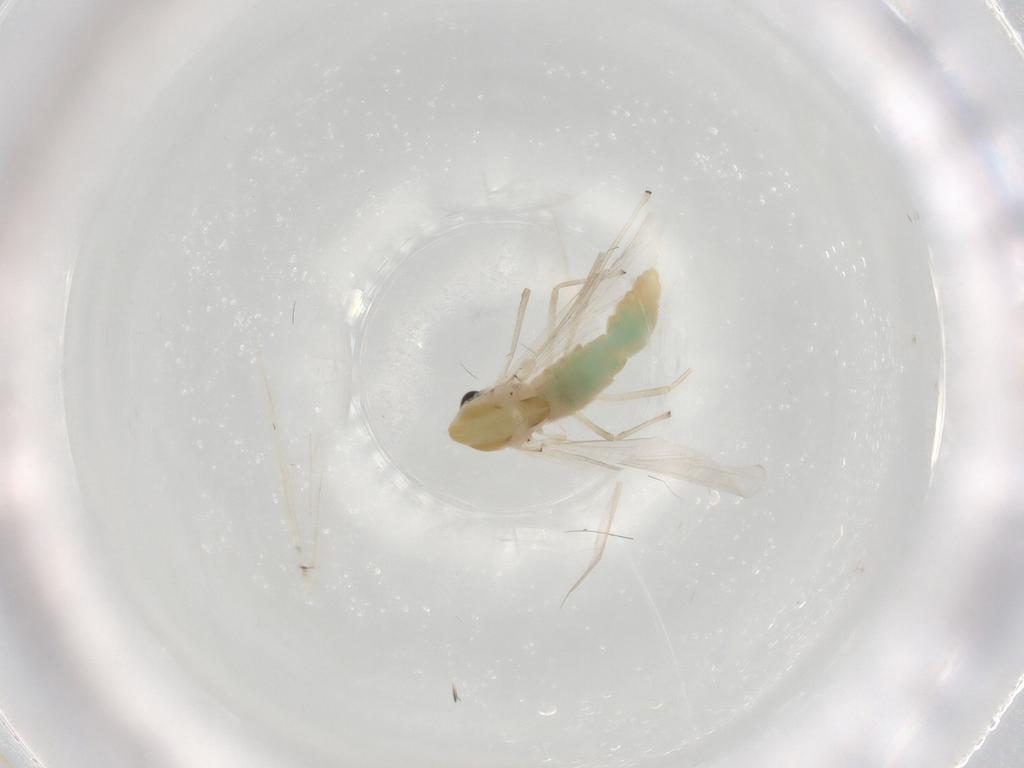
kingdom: Animalia
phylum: Arthropoda
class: Insecta
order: Diptera
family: Chironomidae
